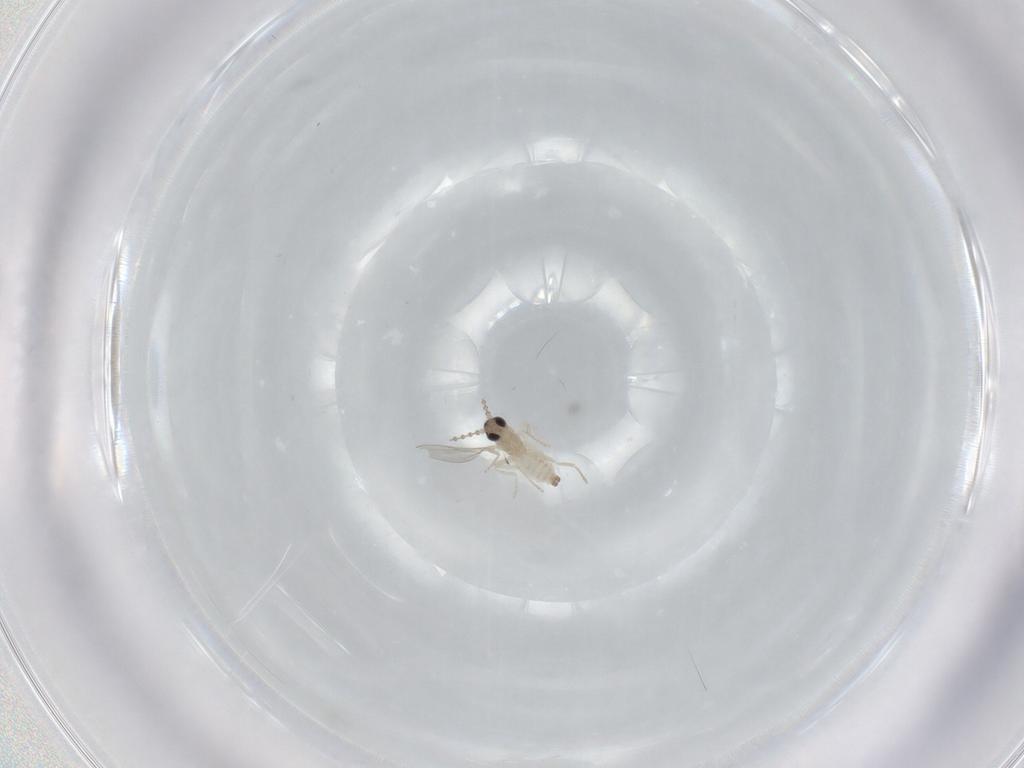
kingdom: Animalia
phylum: Arthropoda
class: Insecta
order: Diptera
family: Cecidomyiidae
